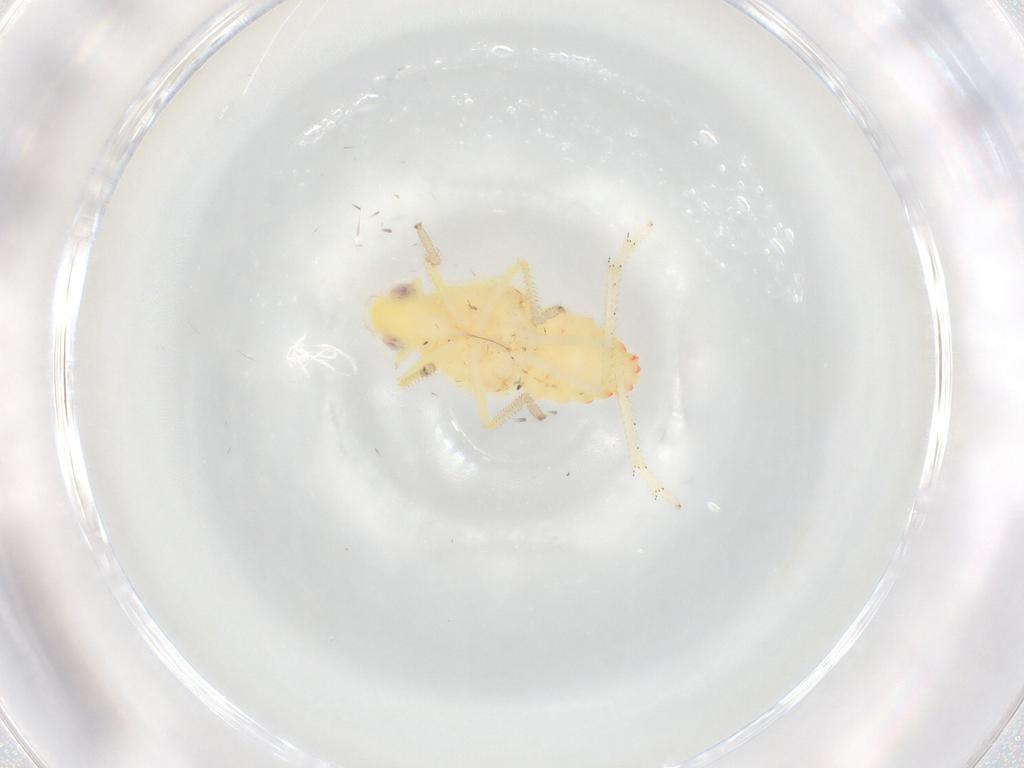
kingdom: Animalia
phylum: Arthropoda
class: Insecta
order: Hemiptera
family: Tropiduchidae
